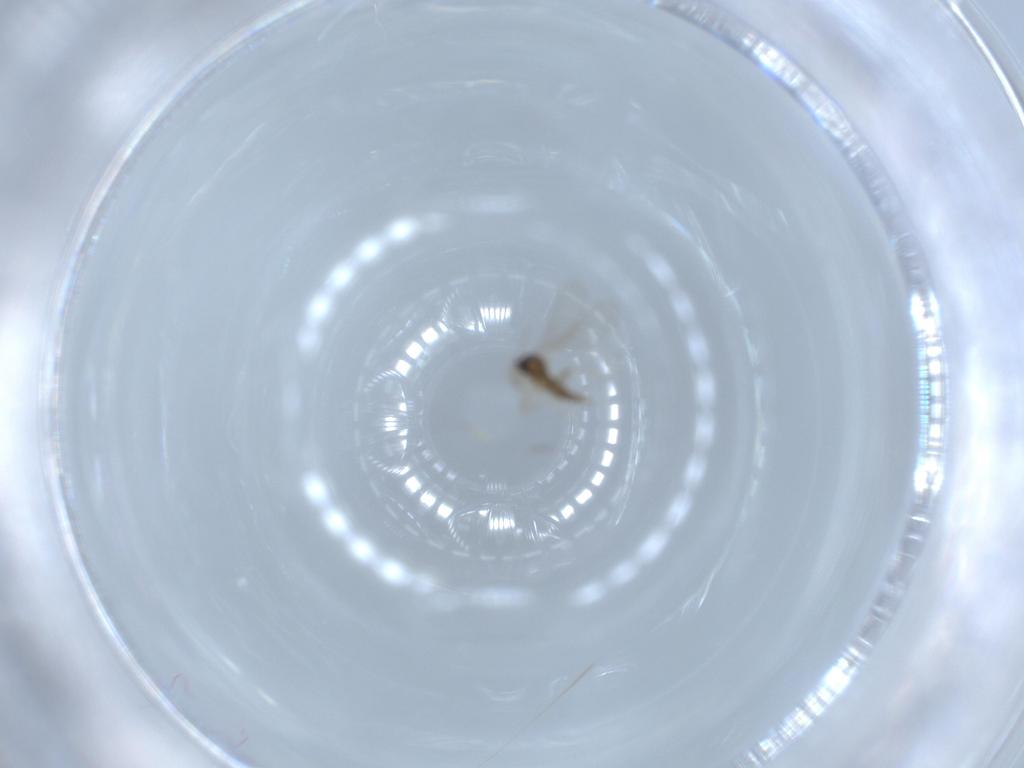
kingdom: Animalia
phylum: Arthropoda
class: Insecta
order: Diptera
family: Cecidomyiidae
